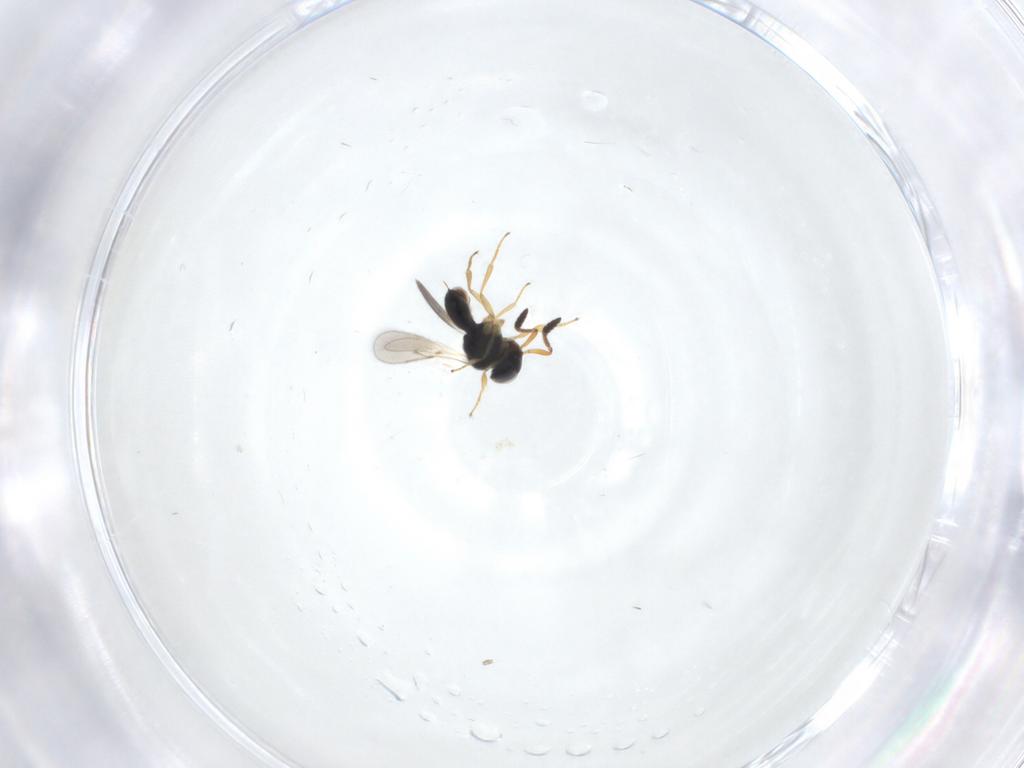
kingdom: Animalia
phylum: Arthropoda
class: Insecta
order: Hymenoptera
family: Scelionidae
